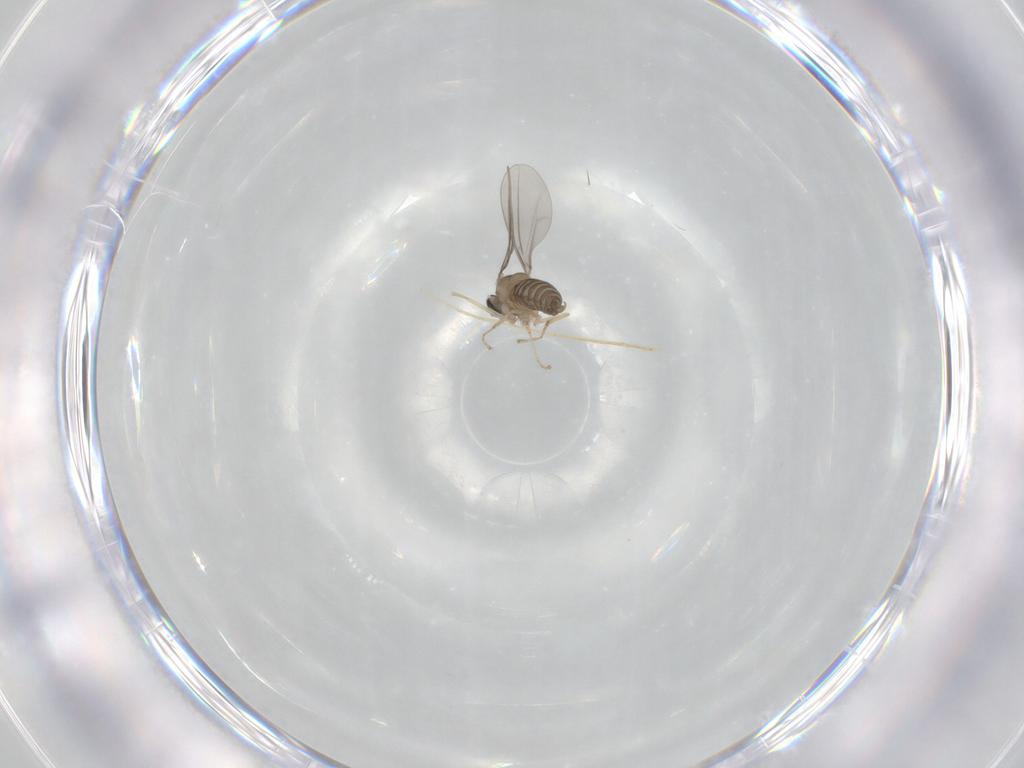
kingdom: Animalia
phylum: Arthropoda
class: Insecta
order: Diptera
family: Cecidomyiidae
